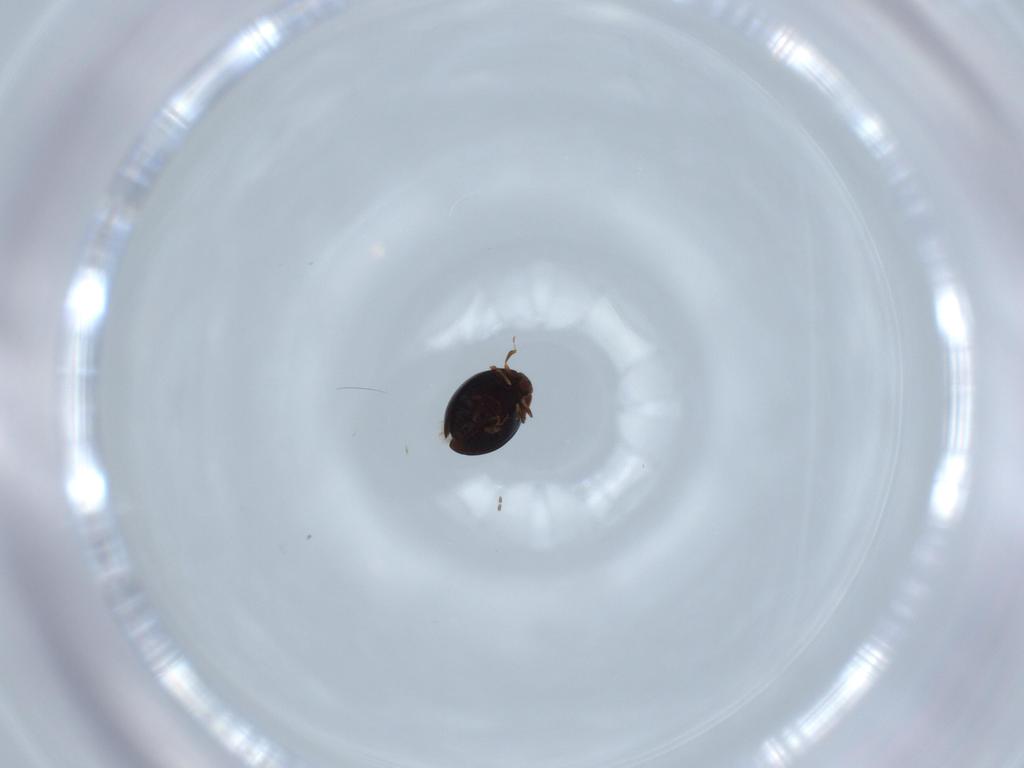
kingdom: Animalia
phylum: Arthropoda
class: Insecta
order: Coleoptera
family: Corylophidae
